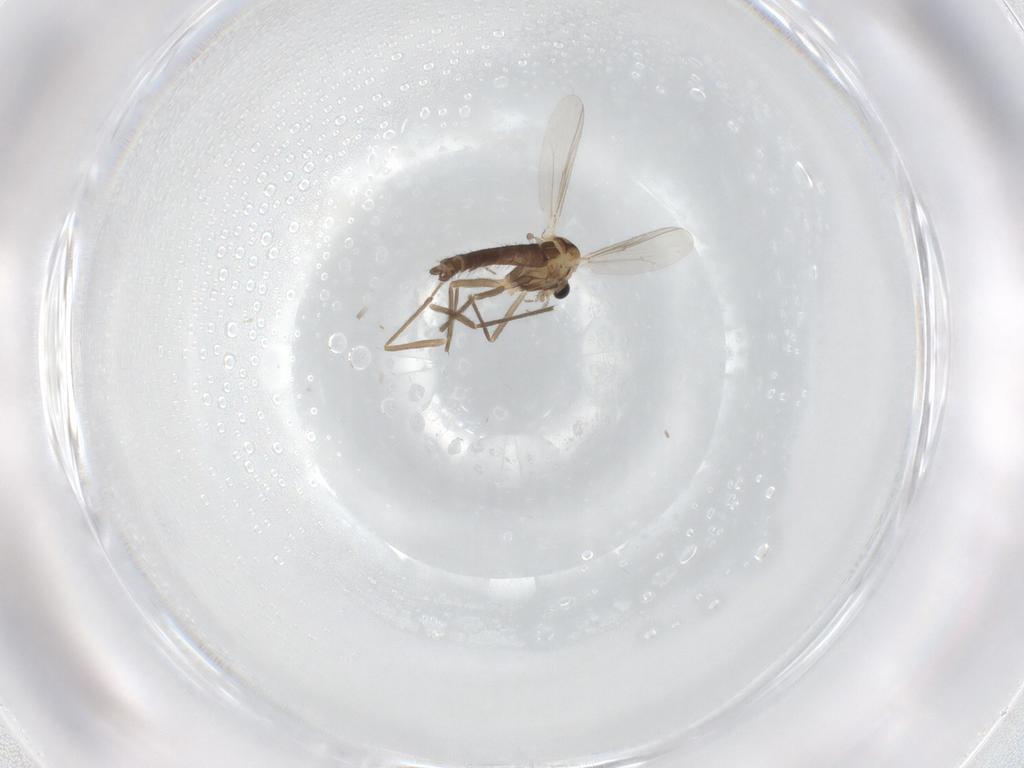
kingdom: Animalia
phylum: Arthropoda
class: Insecta
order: Diptera
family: Chironomidae
